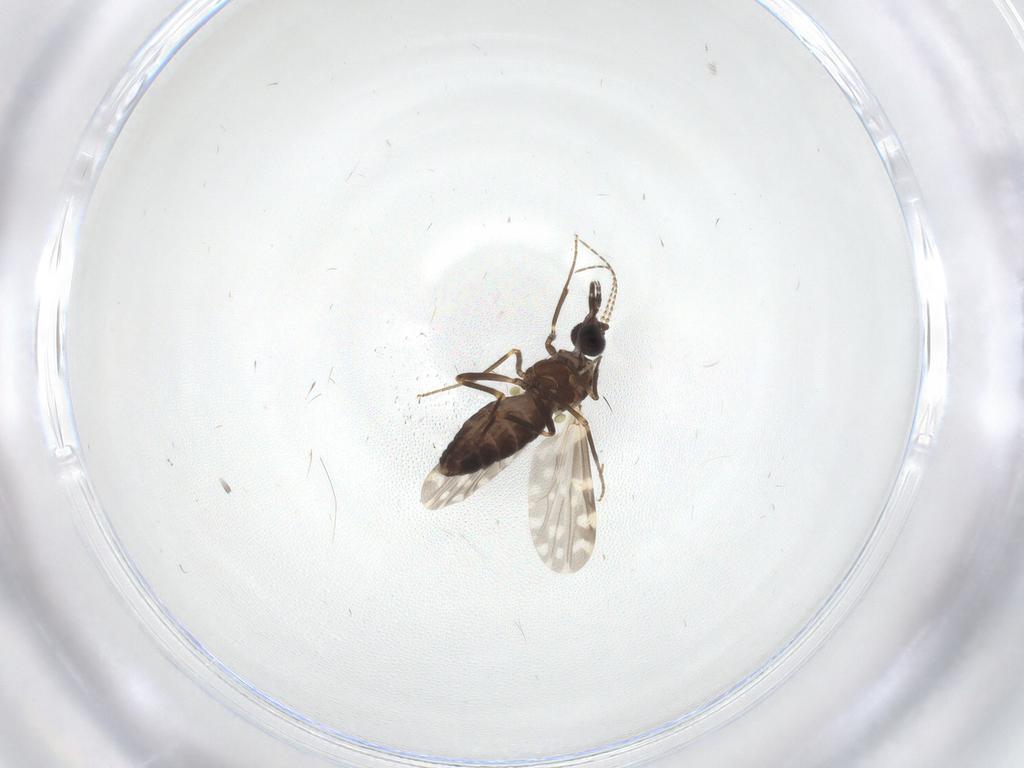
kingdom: Animalia
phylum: Arthropoda
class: Insecta
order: Diptera
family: Ceratopogonidae
